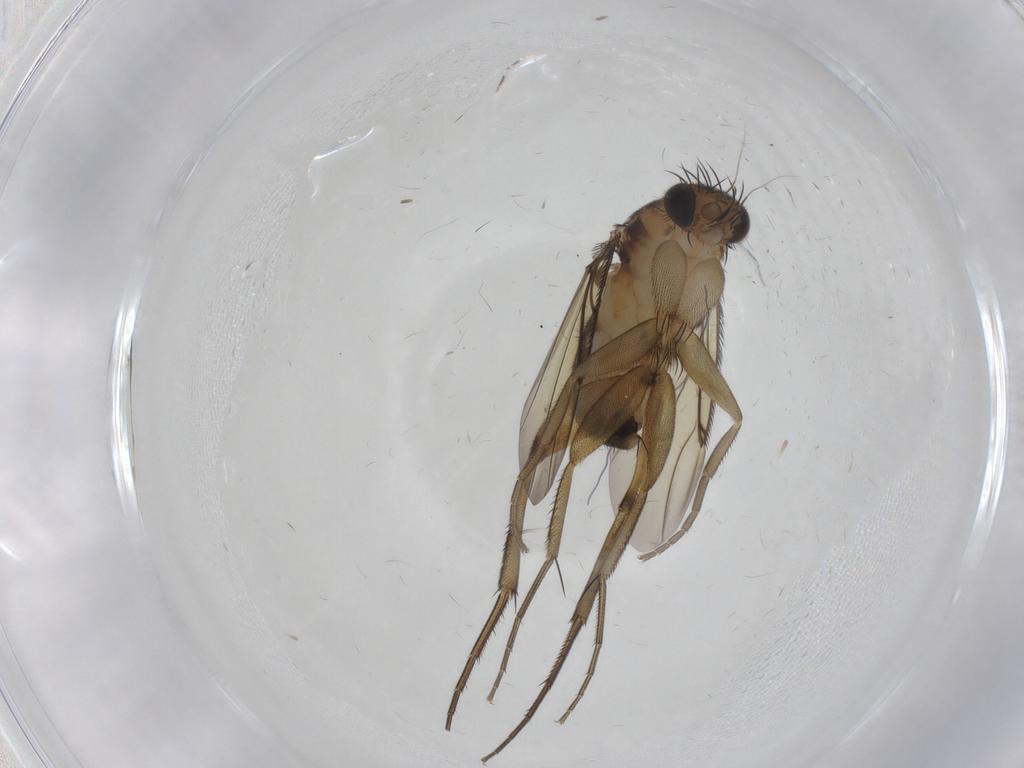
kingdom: Animalia
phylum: Arthropoda
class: Insecta
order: Diptera
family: Phoridae
